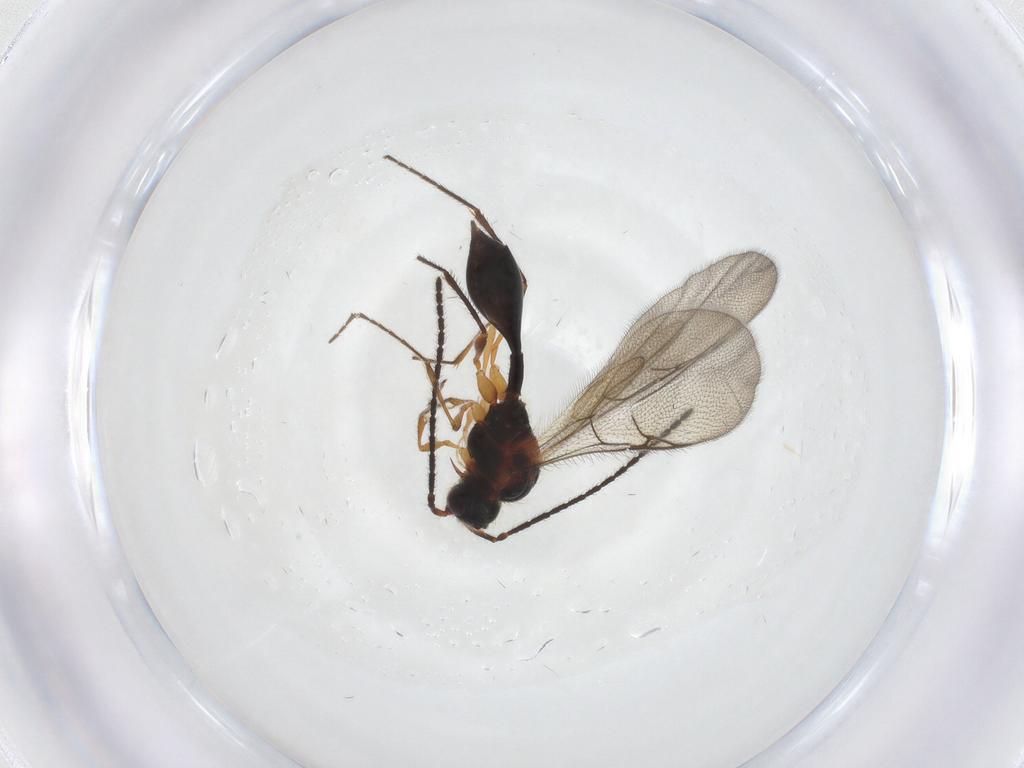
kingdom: Animalia
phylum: Arthropoda
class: Insecta
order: Hymenoptera
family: Diapriidae
